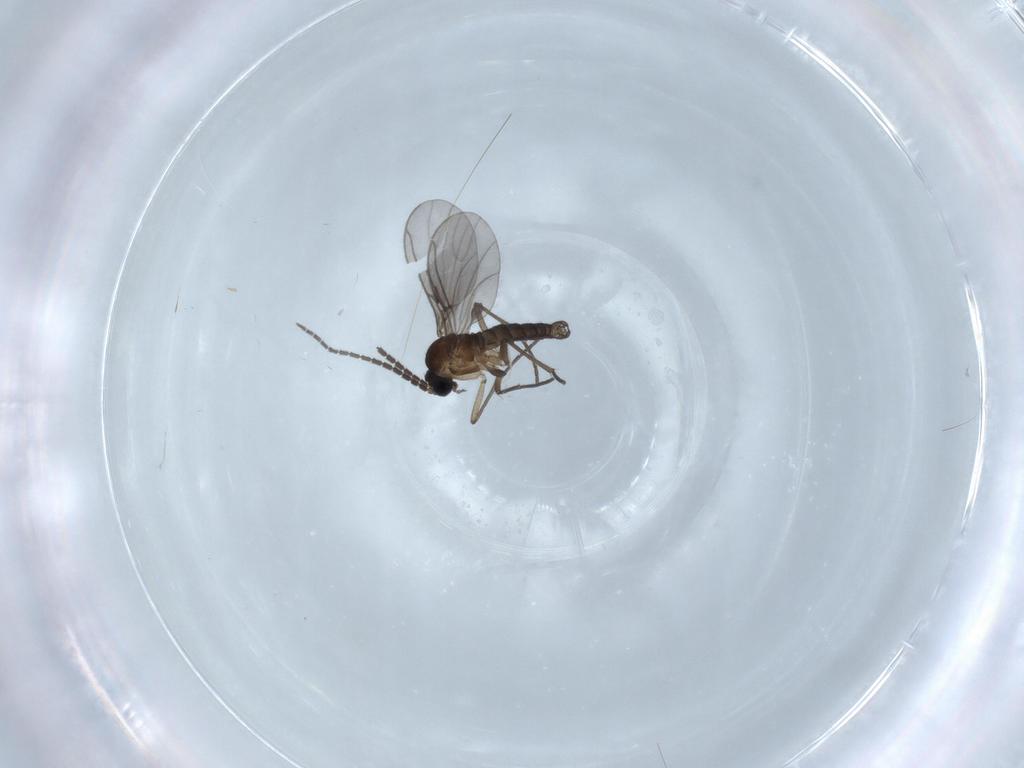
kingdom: Animalia
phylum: Arthropoda
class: Insecta
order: Diptera
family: Sciaridae
